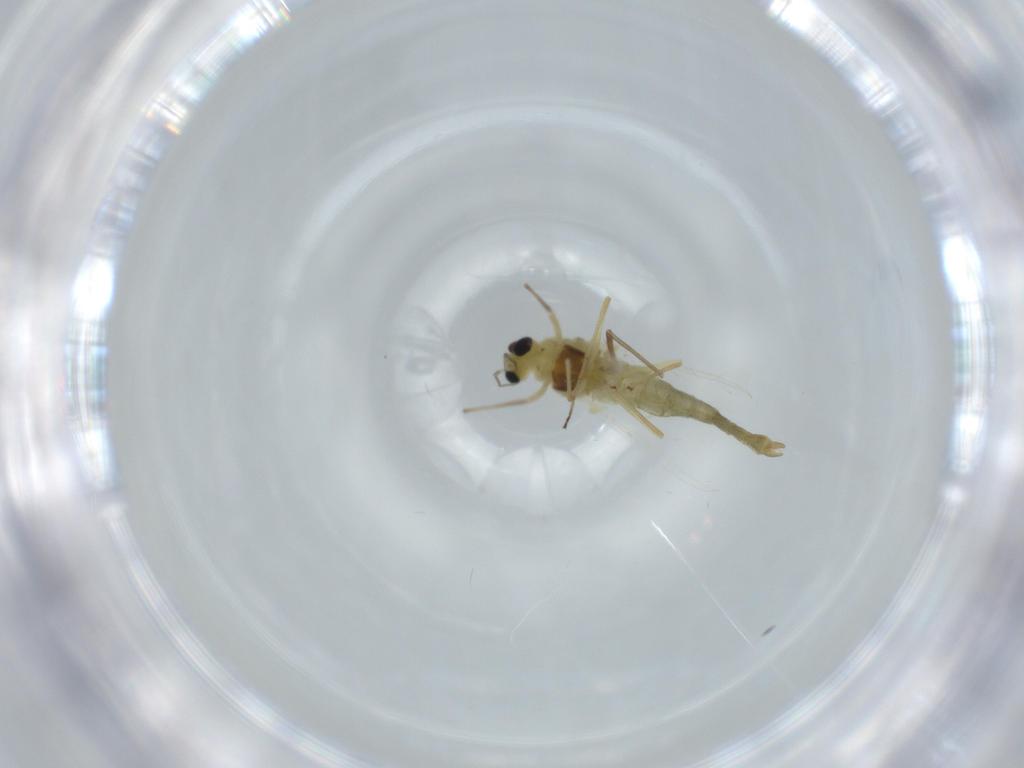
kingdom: Animalia
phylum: Arthropoda
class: Insecta
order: Diptera
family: Chironomidae
